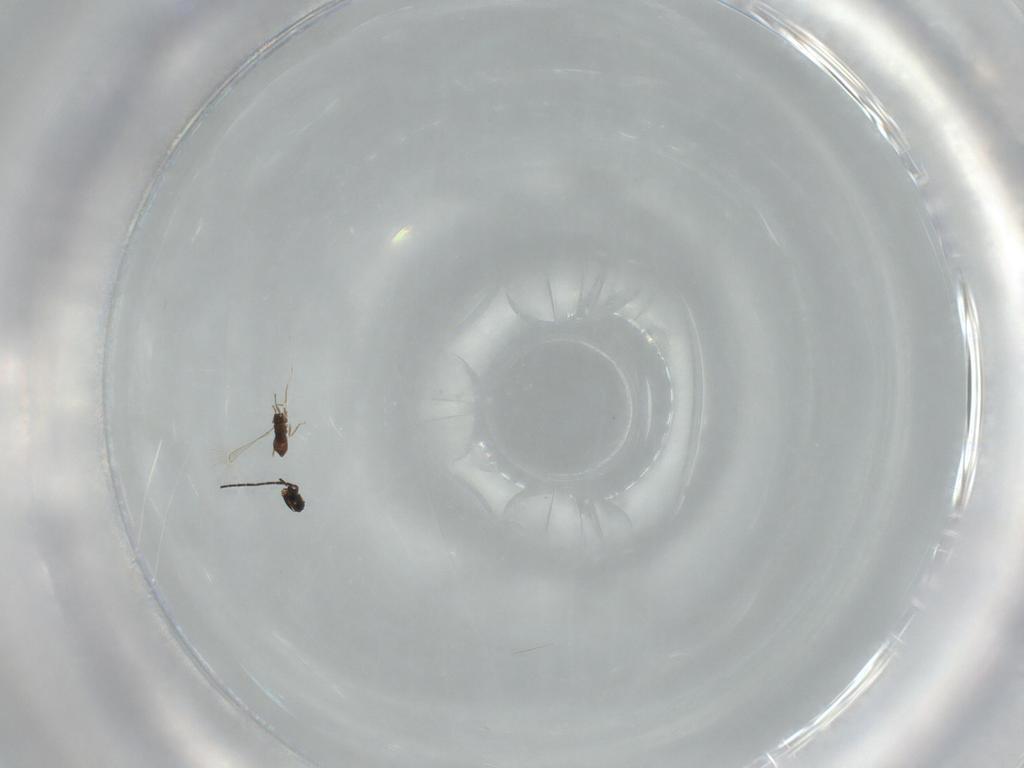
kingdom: Animalia
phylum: Arthropoda
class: Insecta
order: Hymenoptera
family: Mymaridae
